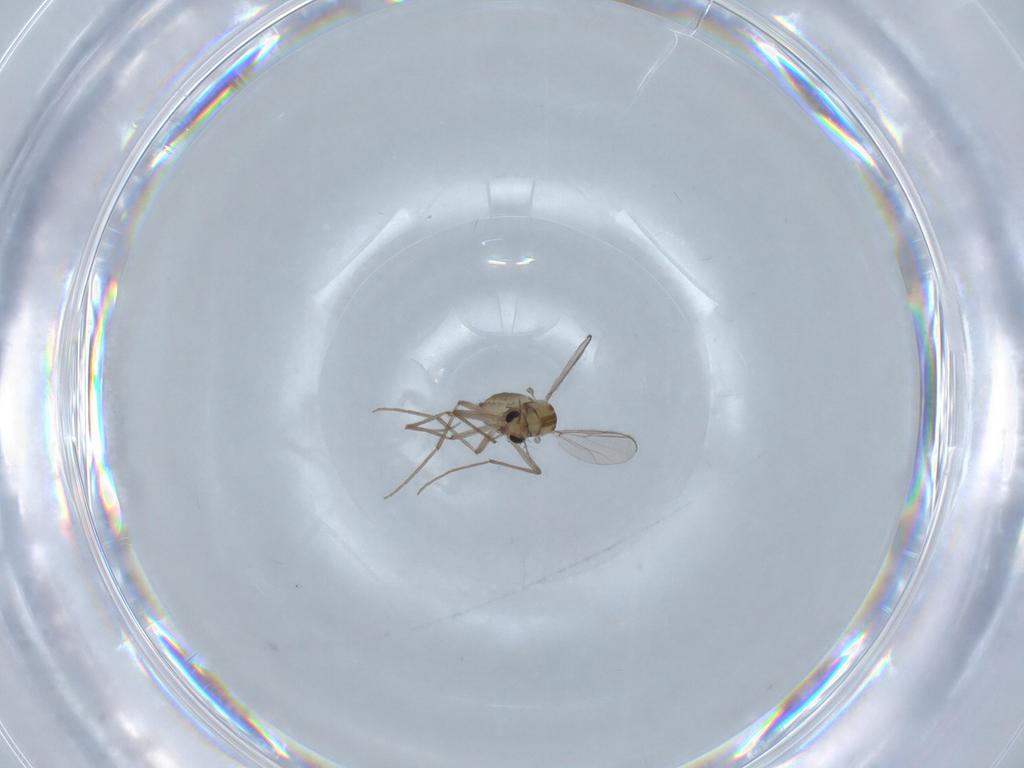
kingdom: Animalia
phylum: Arthropoda
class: Insecta
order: Diptera
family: Chironomidae
